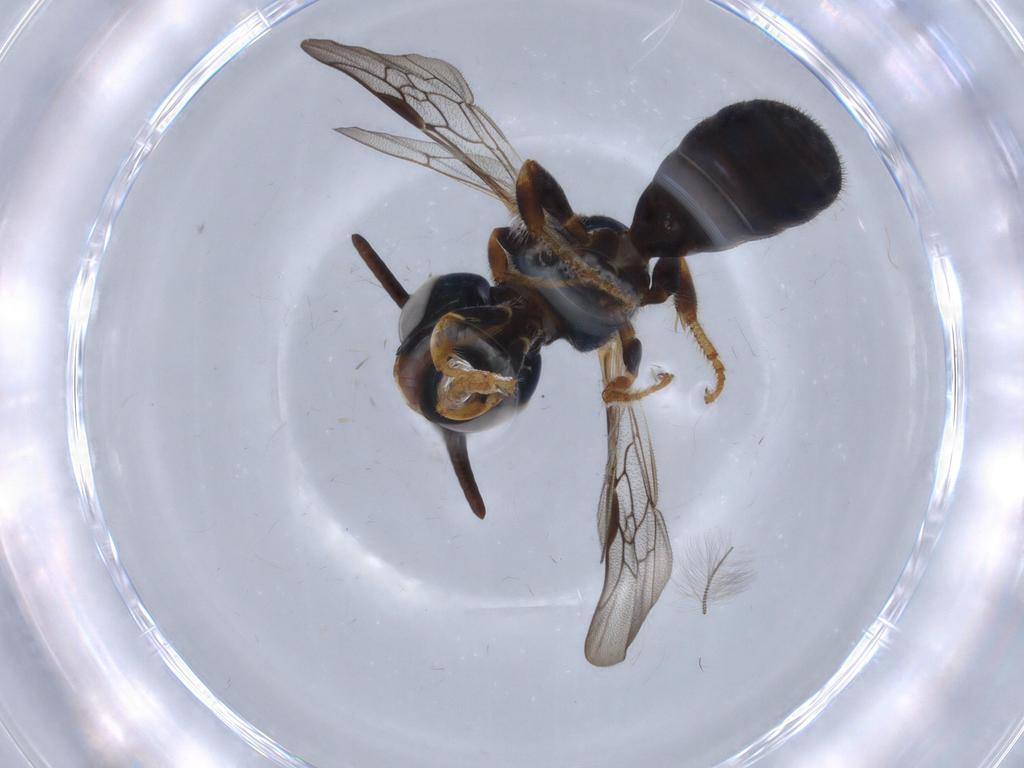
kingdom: Animalia
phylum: Arthropoda
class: Insecta
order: Hymenoptera
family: Apidae
